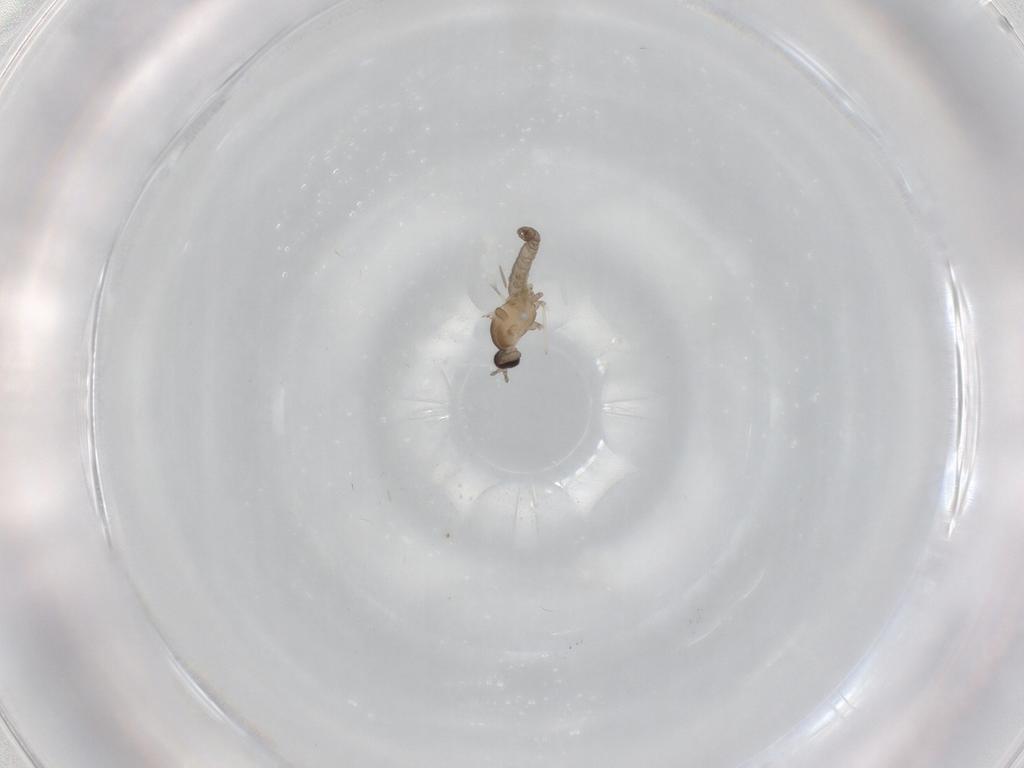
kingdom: Animalia
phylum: Arthropoda
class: Insecta
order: Diptera
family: Cecidomyiidae
